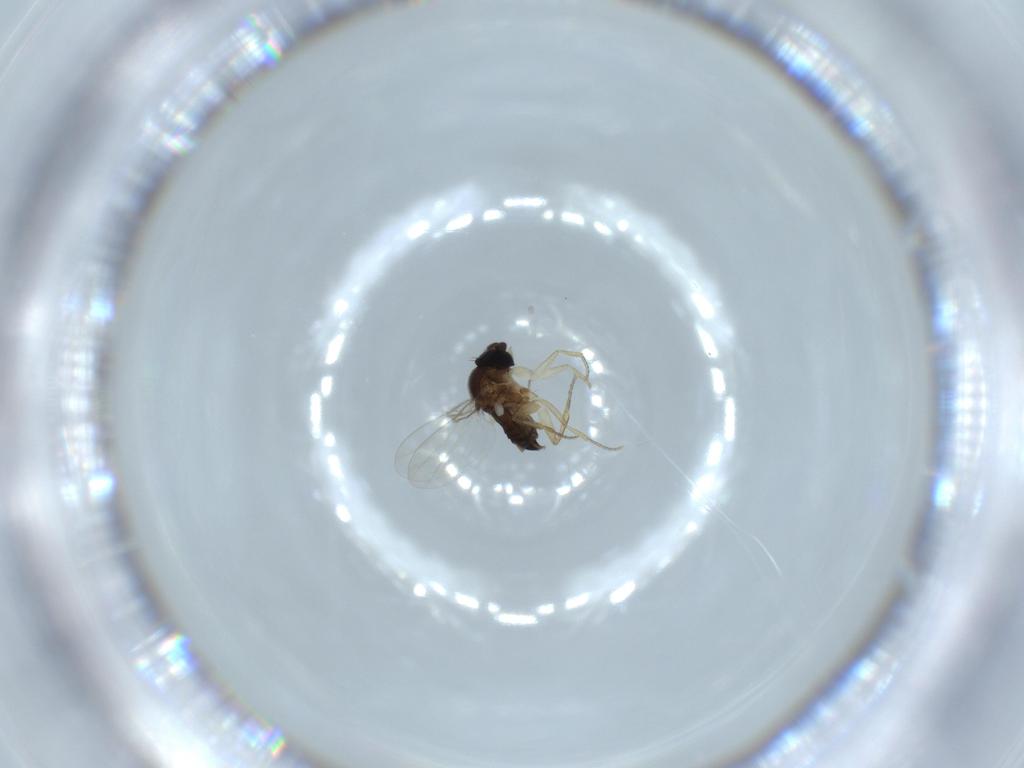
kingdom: Animalia
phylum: Arthropoda
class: Insecta
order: Diptera
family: Phoridae
